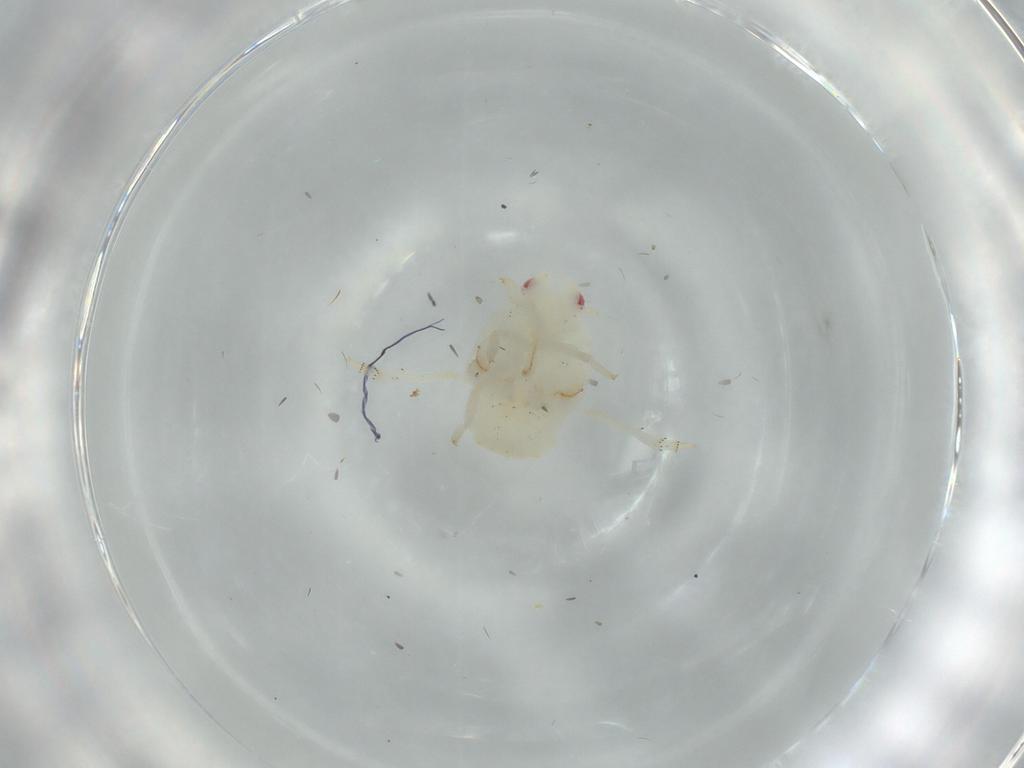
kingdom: Animalia
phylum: Arthropoda
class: Insecta
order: Hemiptera
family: Flatidae
